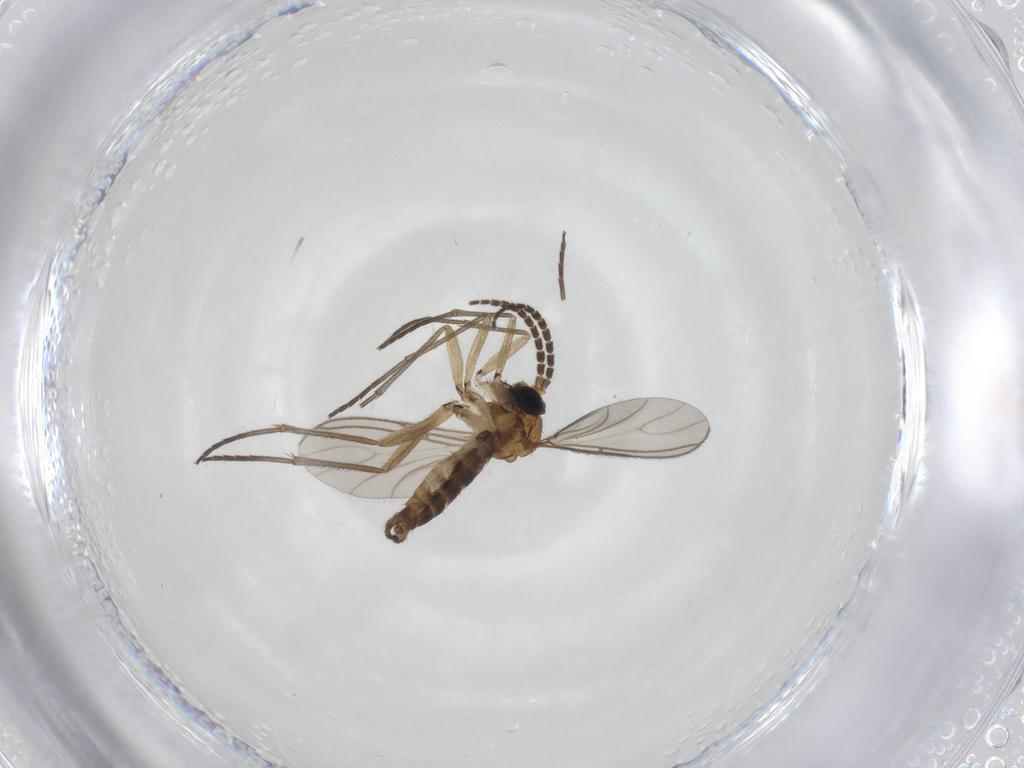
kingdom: Animalia
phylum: Arthropoda
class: Insecta
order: Diptera
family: Sciaridae
